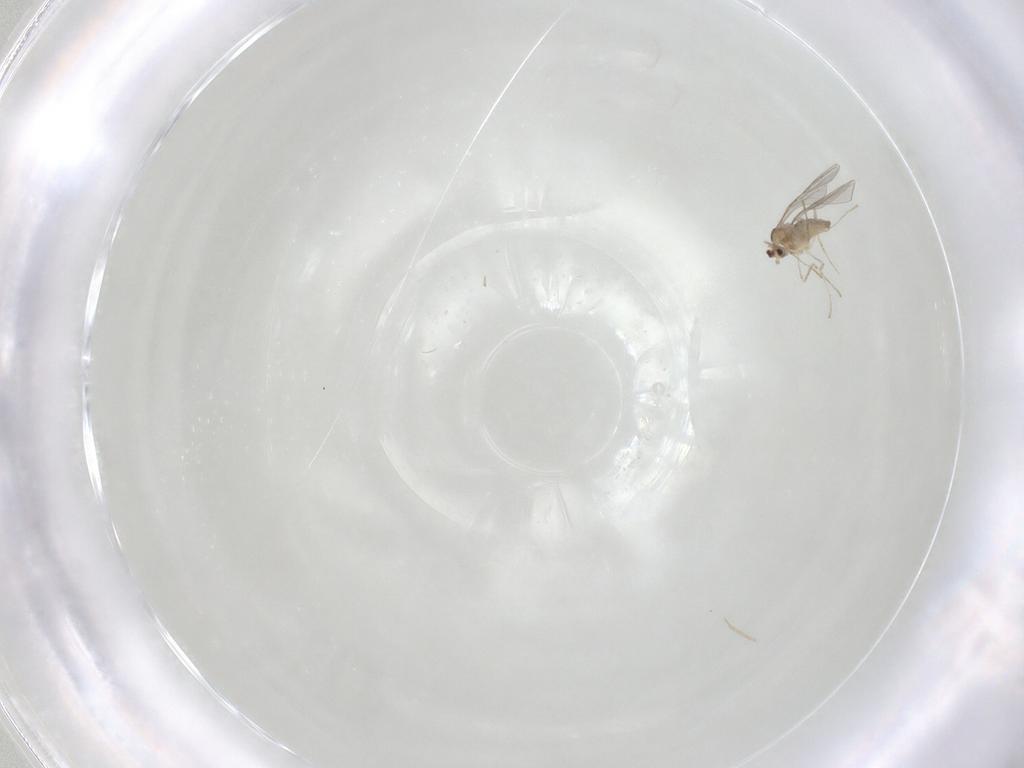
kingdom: Animalia
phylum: Arthropoda
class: Insecta
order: Diptera
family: Cecidomyiidae
